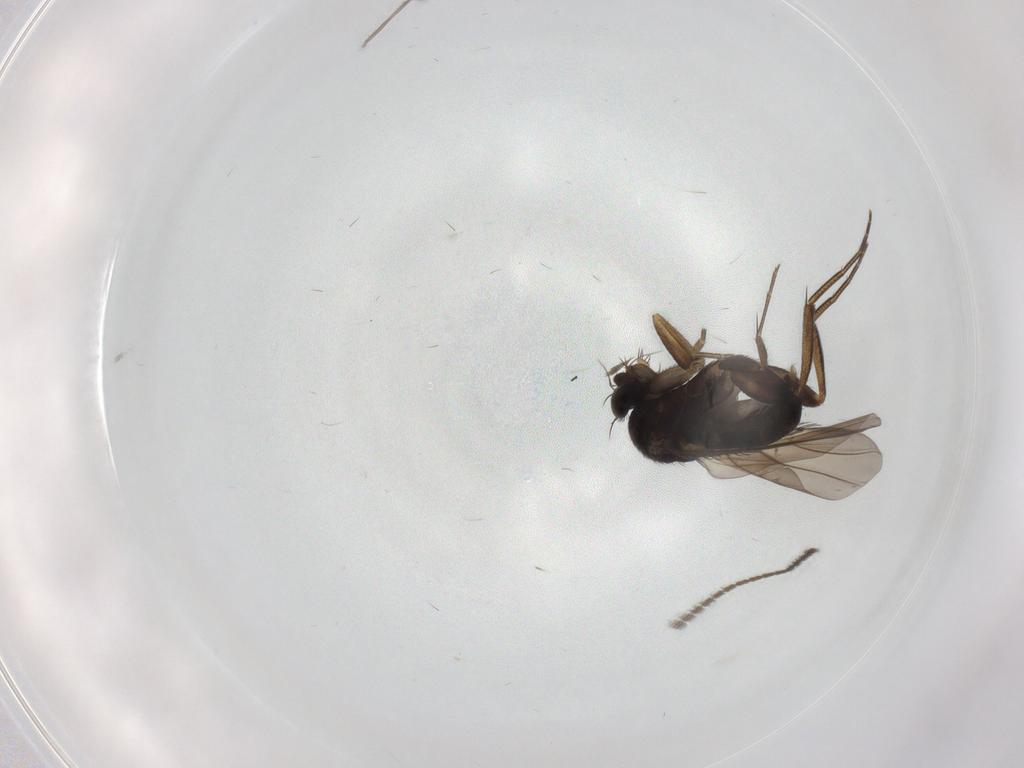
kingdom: Animalia
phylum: Arthropoda
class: Insecta
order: Diptera
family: Phoridae
